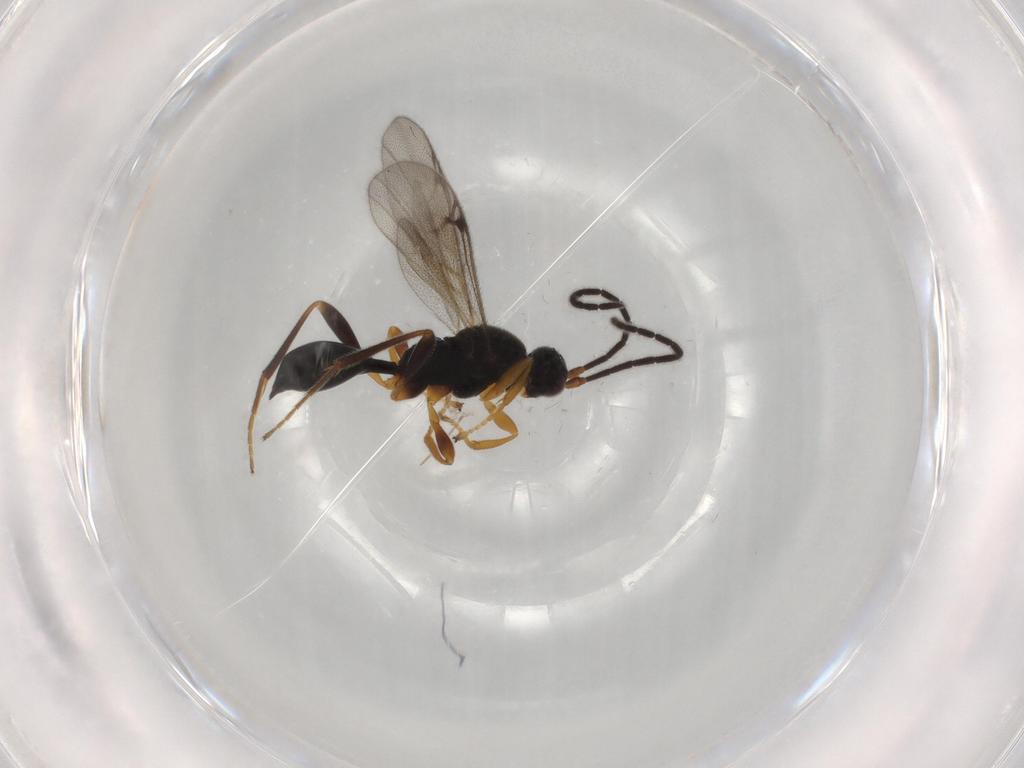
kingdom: Animalia
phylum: Arthropoda
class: Insecta
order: Hymenoptera
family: Proctotrupidae
